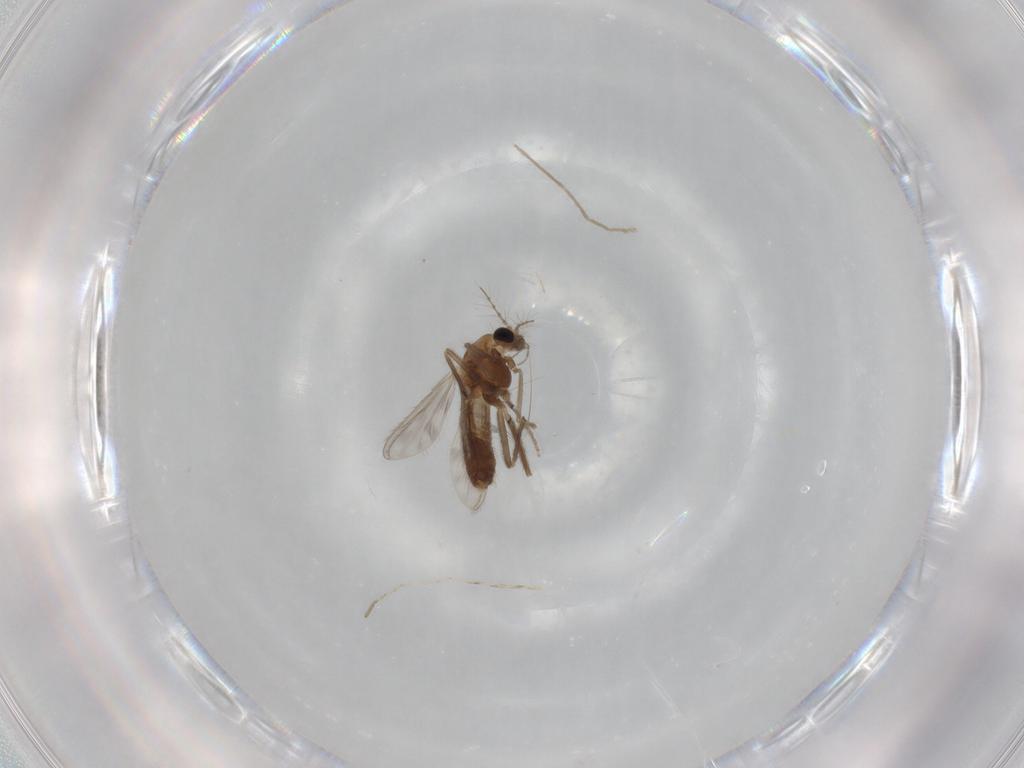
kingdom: Animalia
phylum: Arthropoda
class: Insecta
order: Diptera
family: Chironomidae
